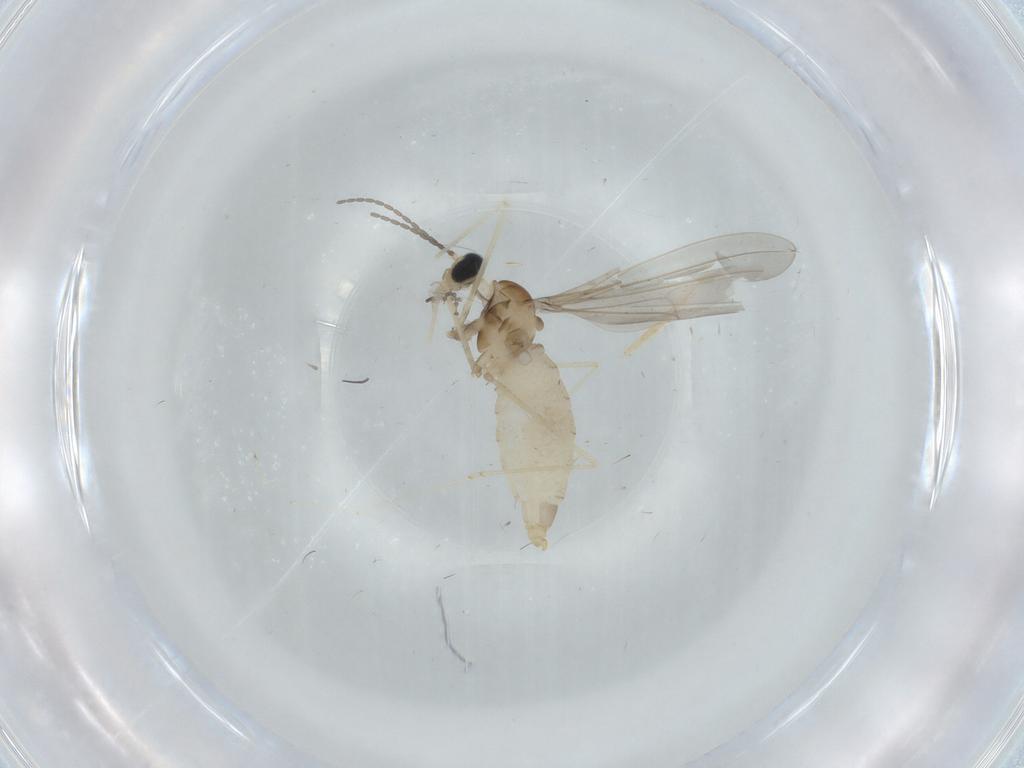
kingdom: Animalia
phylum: Arthropoda
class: Insecta
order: Diptera
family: Cecidomyiidae
